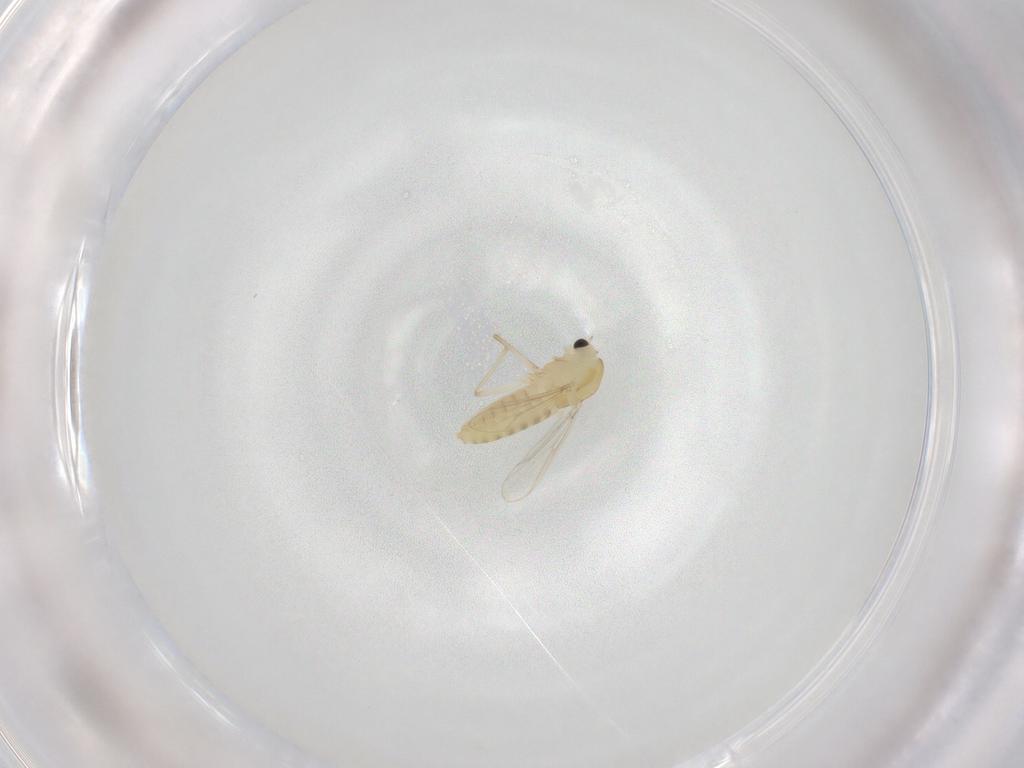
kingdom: Animalia
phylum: Arthropoda
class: Insecta
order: Diptera
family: Chironomidae
